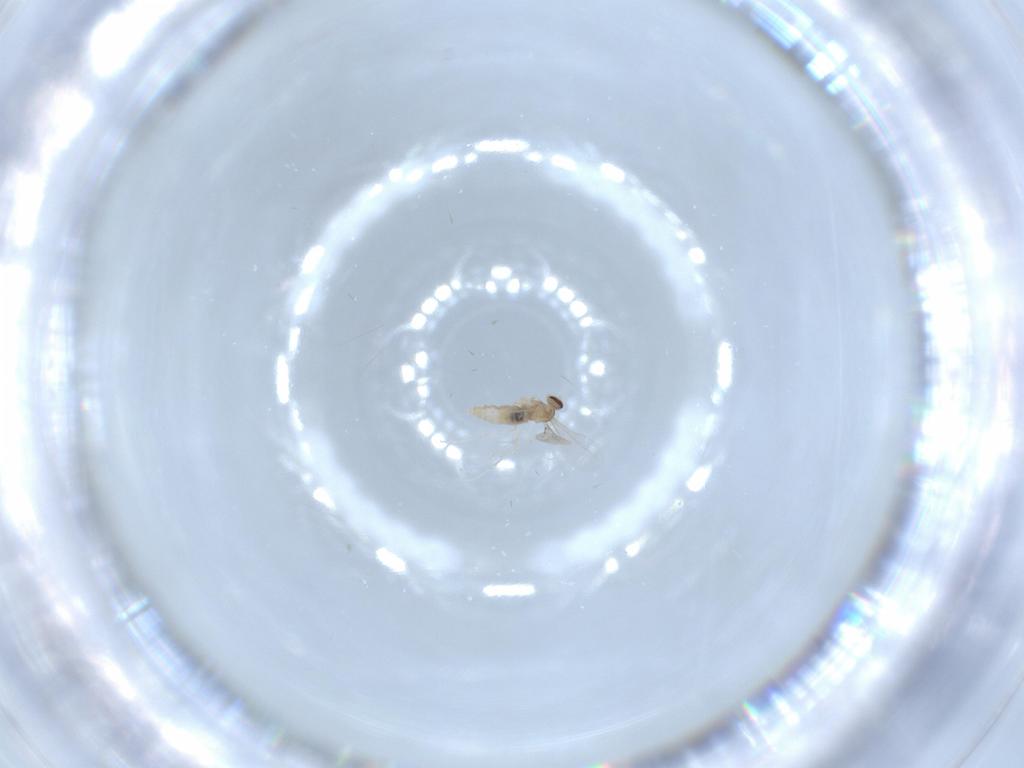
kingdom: Animalia
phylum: Arthropoda
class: Insecta
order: Diptera
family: Cecidomyiidae
